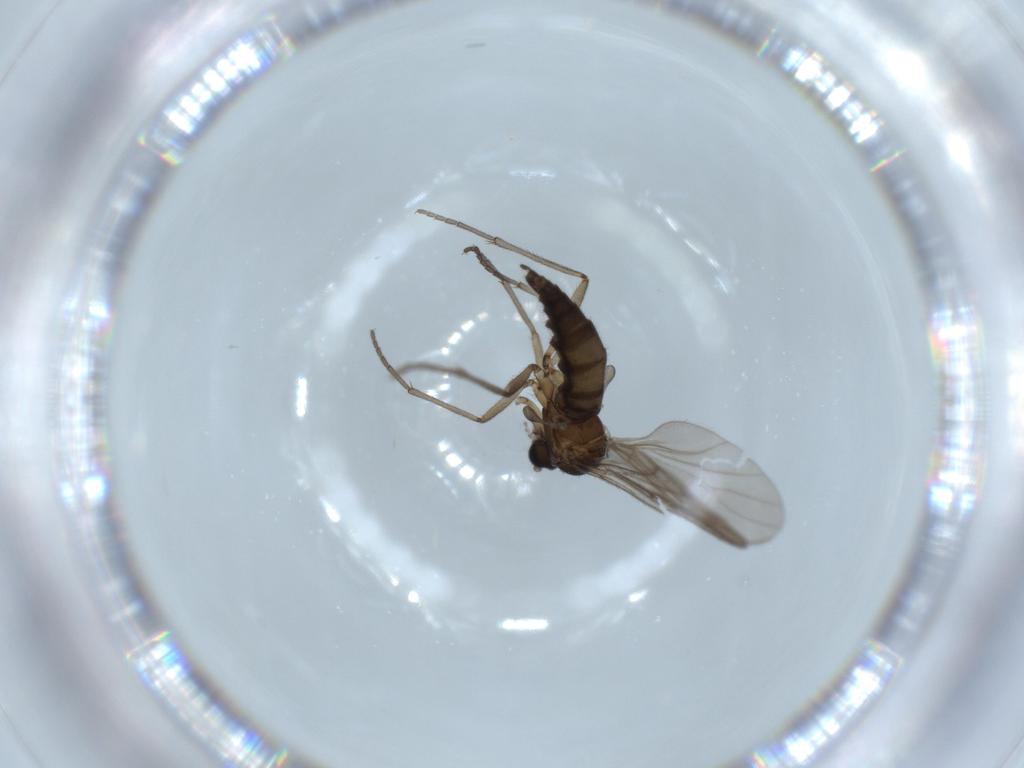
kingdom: Animalia
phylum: Arthropoda
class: Insecta
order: Diptera
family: Sciaridae
